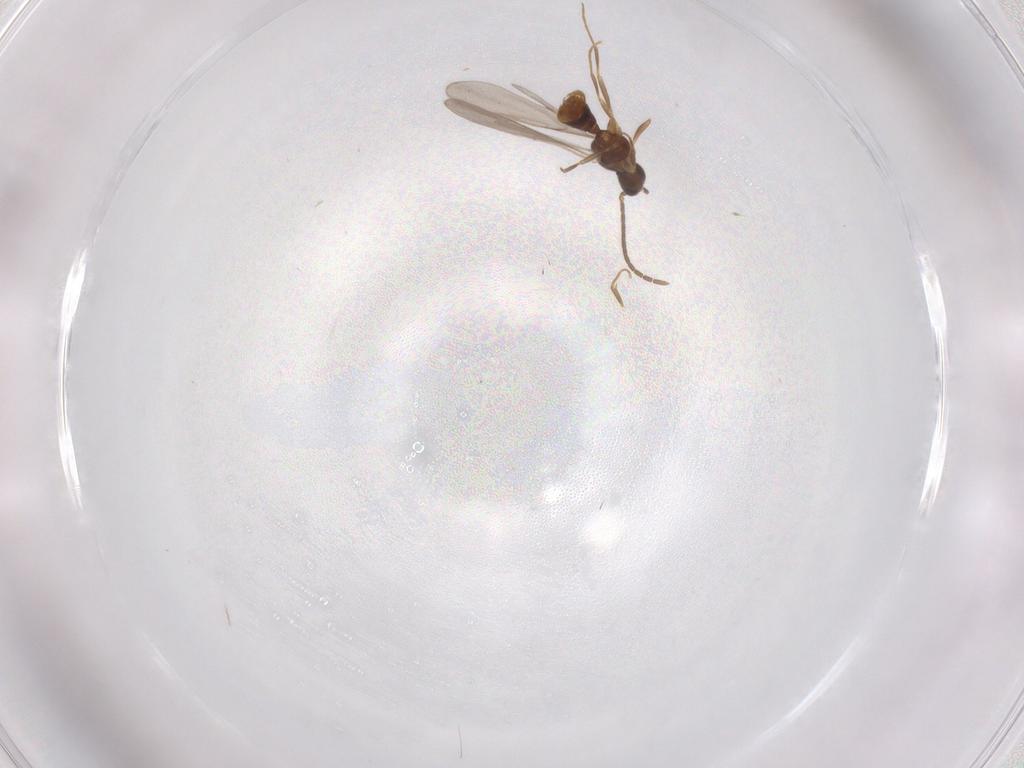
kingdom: Animalia
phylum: Arthropoda
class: Insecta
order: Hymenoptera
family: Formicidae
